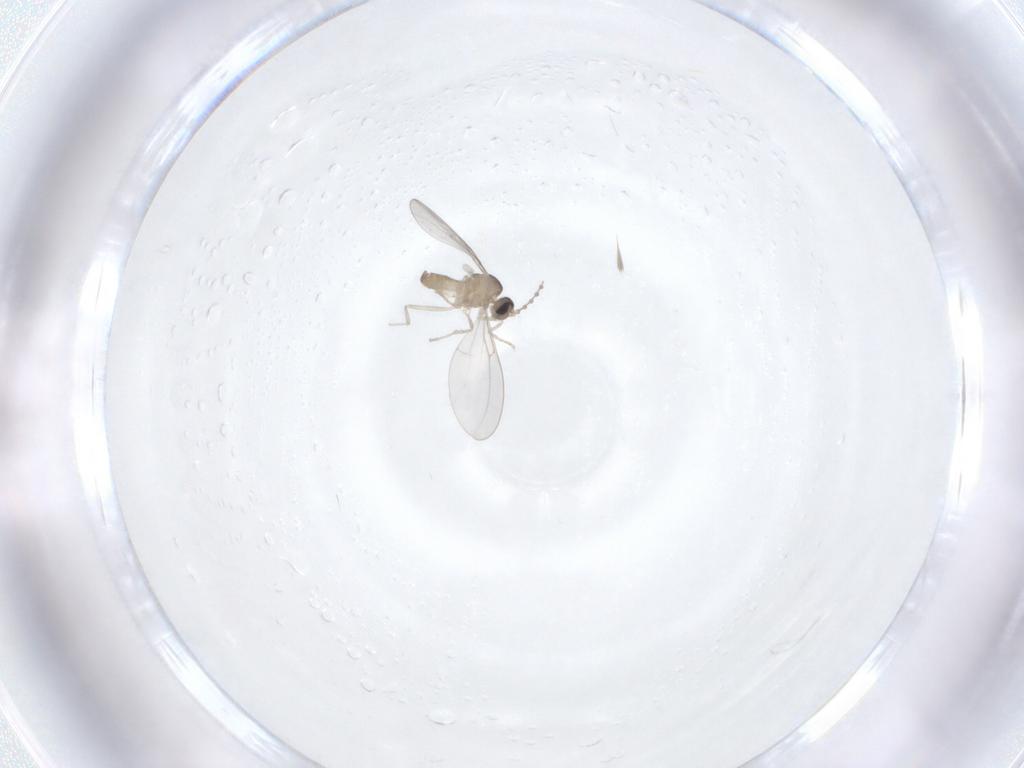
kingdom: Animalia
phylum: Arthropoda
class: Insecta
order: Diptera
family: Cecidomyiidae
